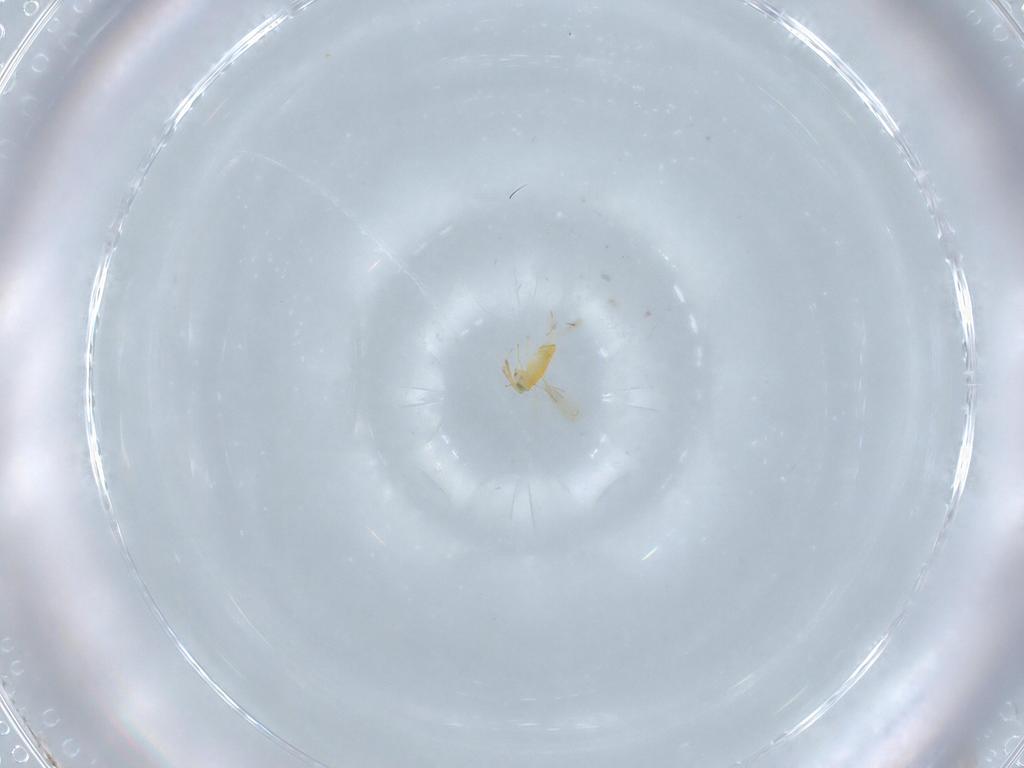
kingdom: Animalia
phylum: Arthropoda
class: Insecta
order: Hymenoptera
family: Aphelinidae
